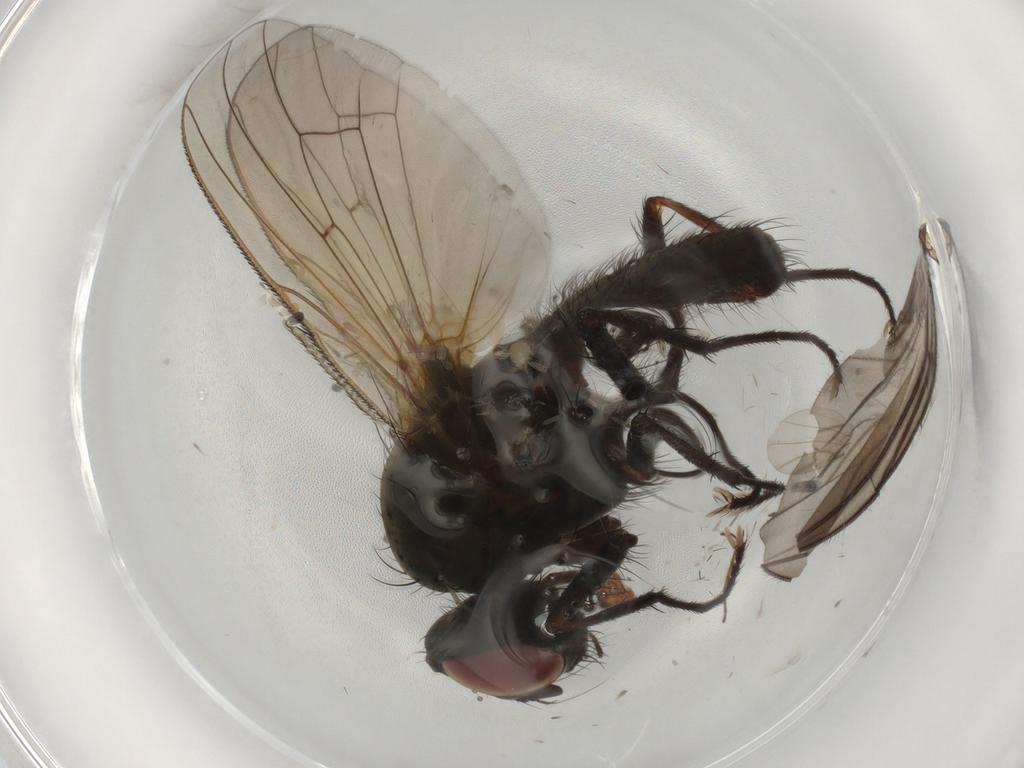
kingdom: Animalia
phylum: Arthropoda
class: Insecta
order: Diptera
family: Anthomyiidae
